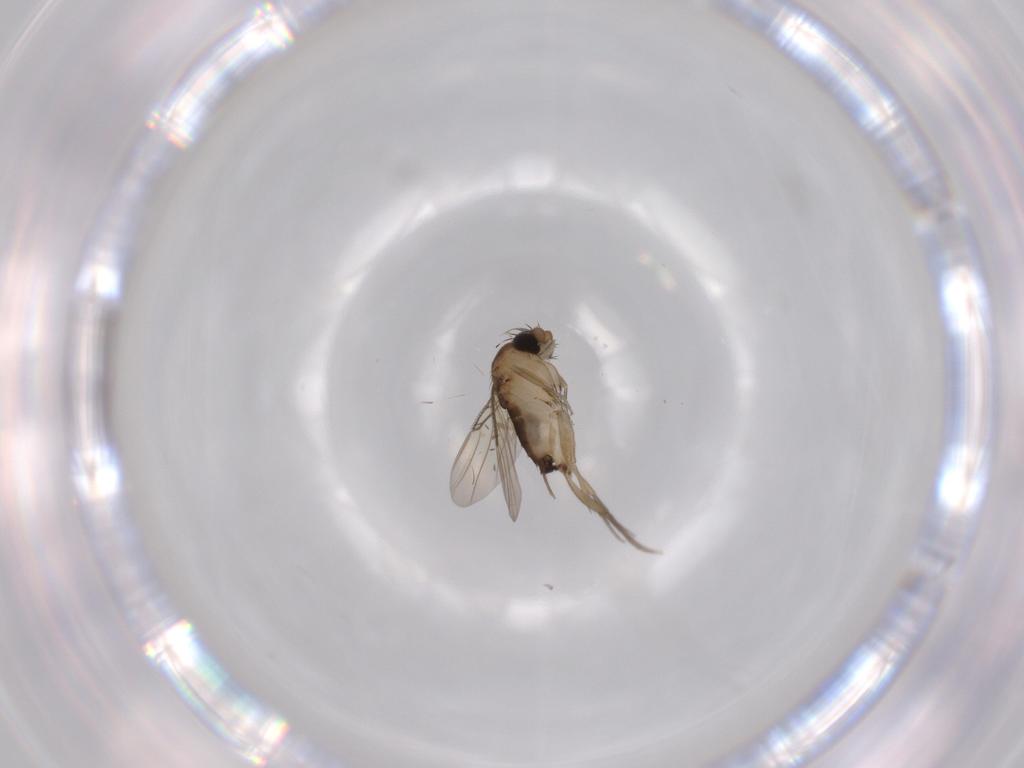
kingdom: Animalia
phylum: Arthropoda
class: Insecta
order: Diptera
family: Phoridae
